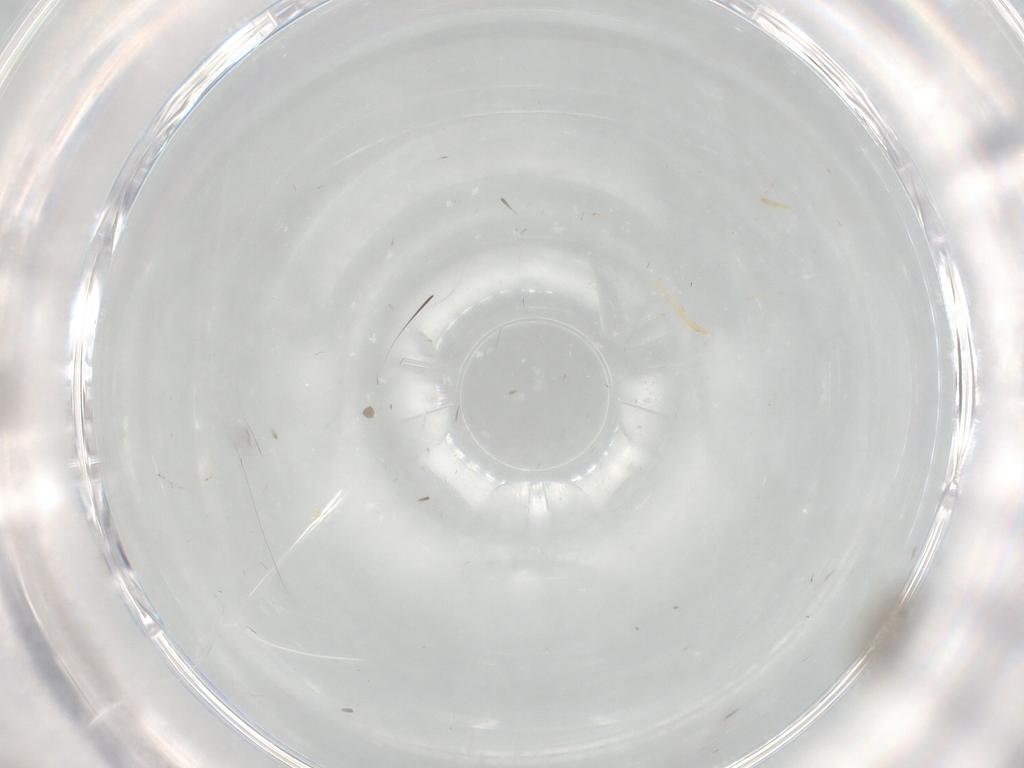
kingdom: Animalia
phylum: Arthropoda
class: Insecta
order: Diptera
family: Cecidomyiidae
